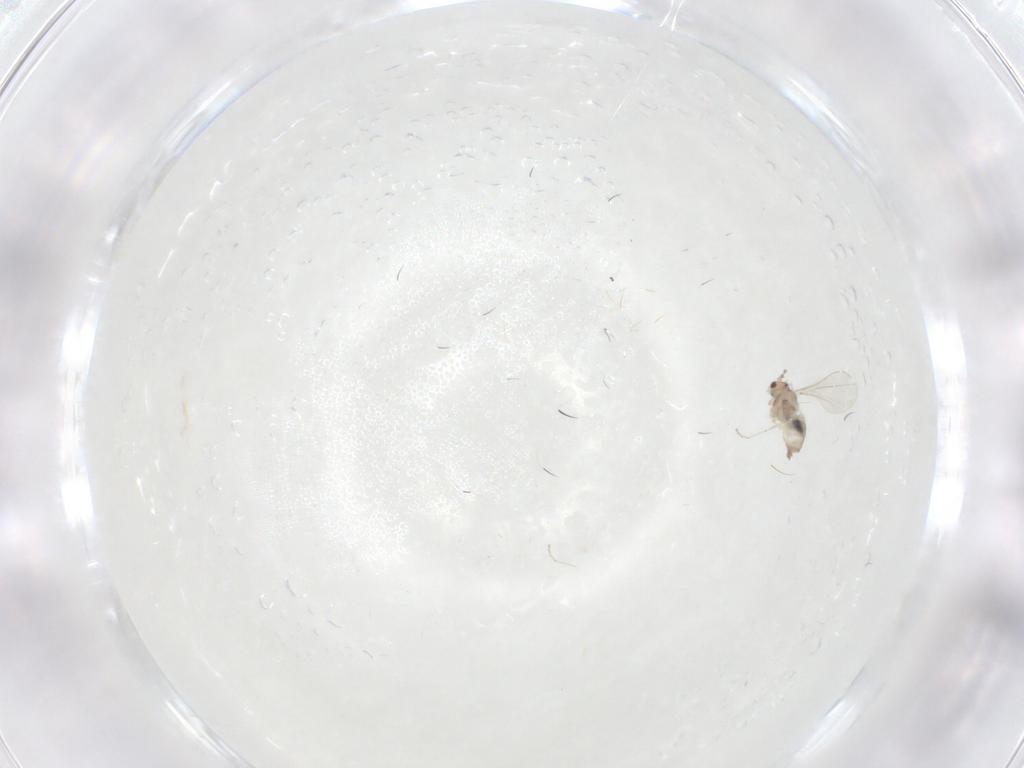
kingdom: Animalia
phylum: Arthropoda
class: Insecta
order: Diptera
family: Cecidomyiidae
